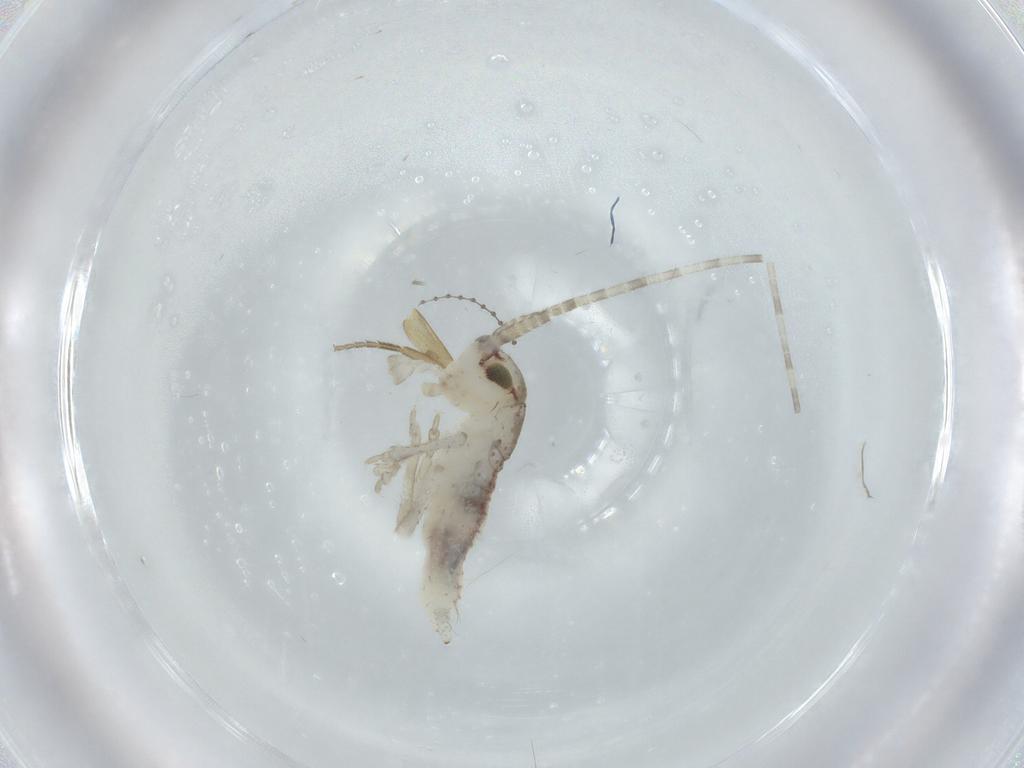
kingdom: Animalia
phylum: Arthropoda
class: Insecta
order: Orthoptera
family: Gryllidae
